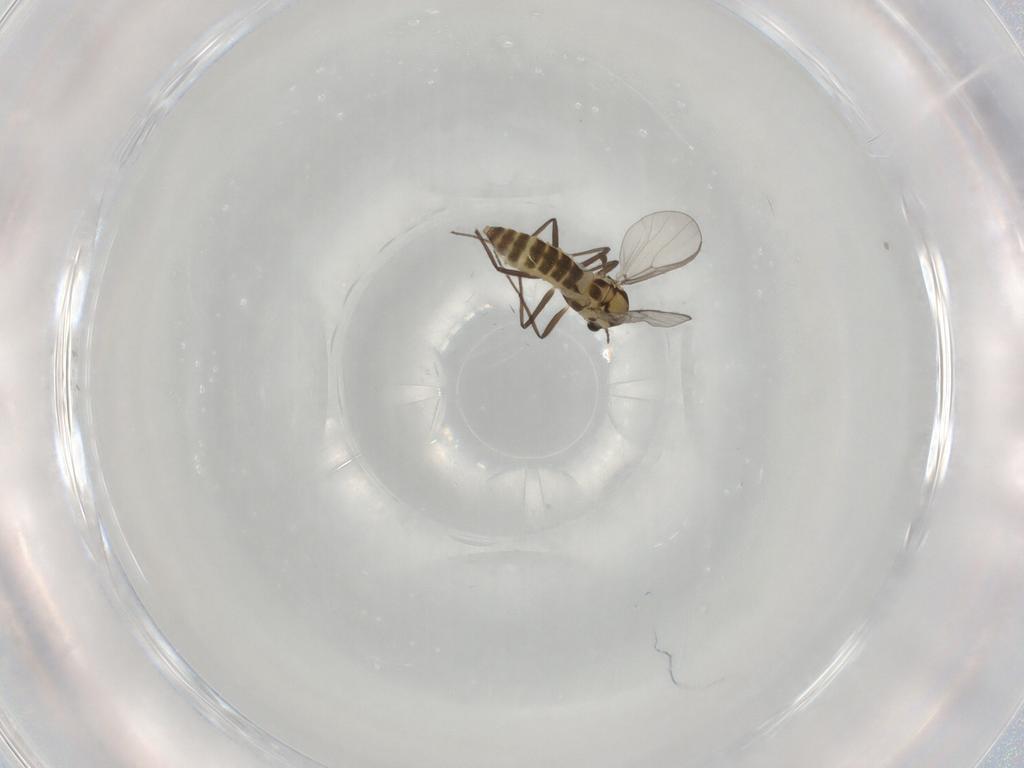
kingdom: Animalia
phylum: Arthropoda
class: Insecta
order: Diptera
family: Chironomidae
